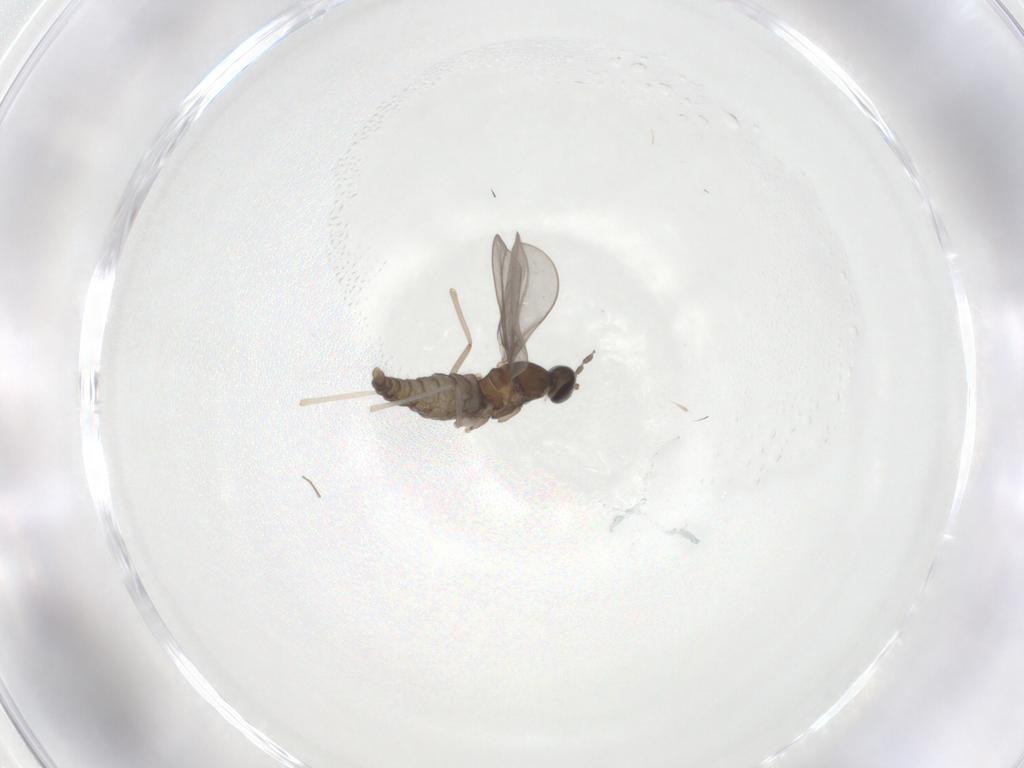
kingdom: Animalia
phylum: Arthropoda
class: Insecta
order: Diptera
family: Cecidomyiidae
